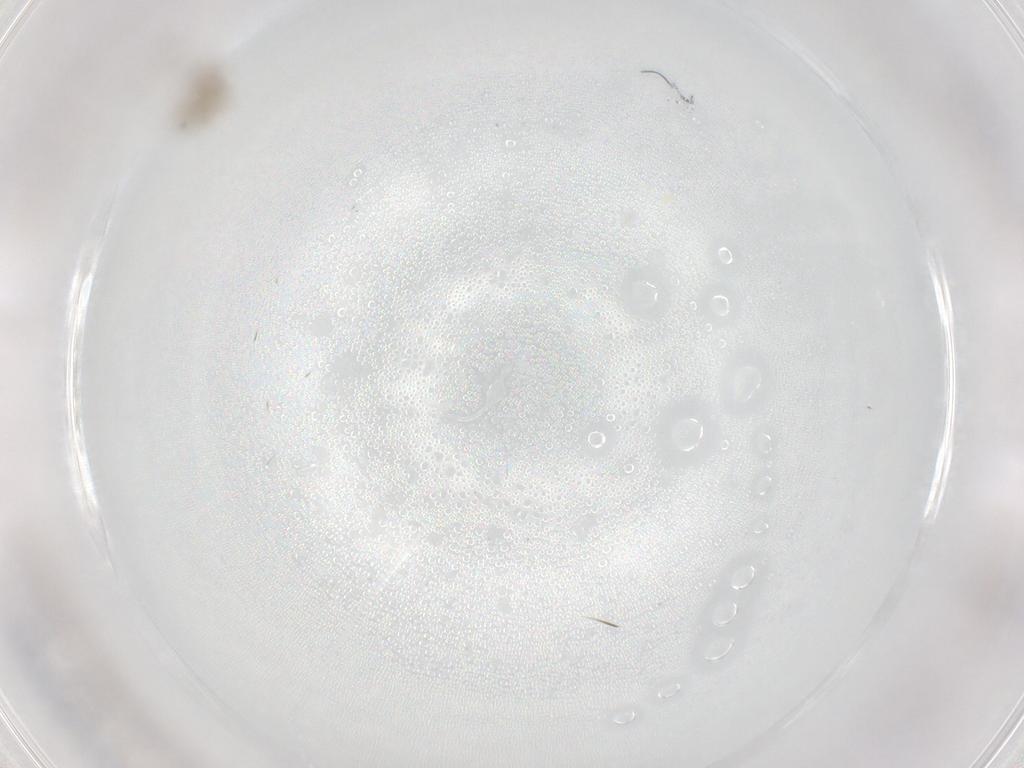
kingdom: Animalia
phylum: Arthropoda
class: Insecta
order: Diptera
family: Cecidomyiidae
